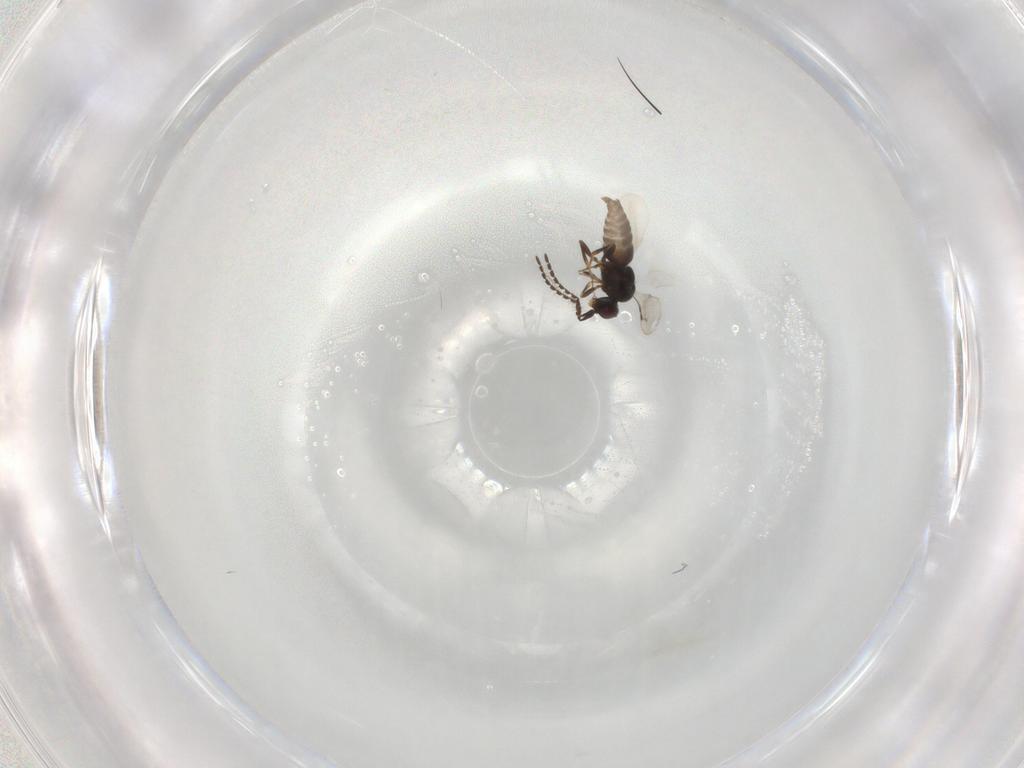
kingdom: Animalia
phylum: Arthropoda
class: Insecta
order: Hymenoptera
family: Ceraphronidae
